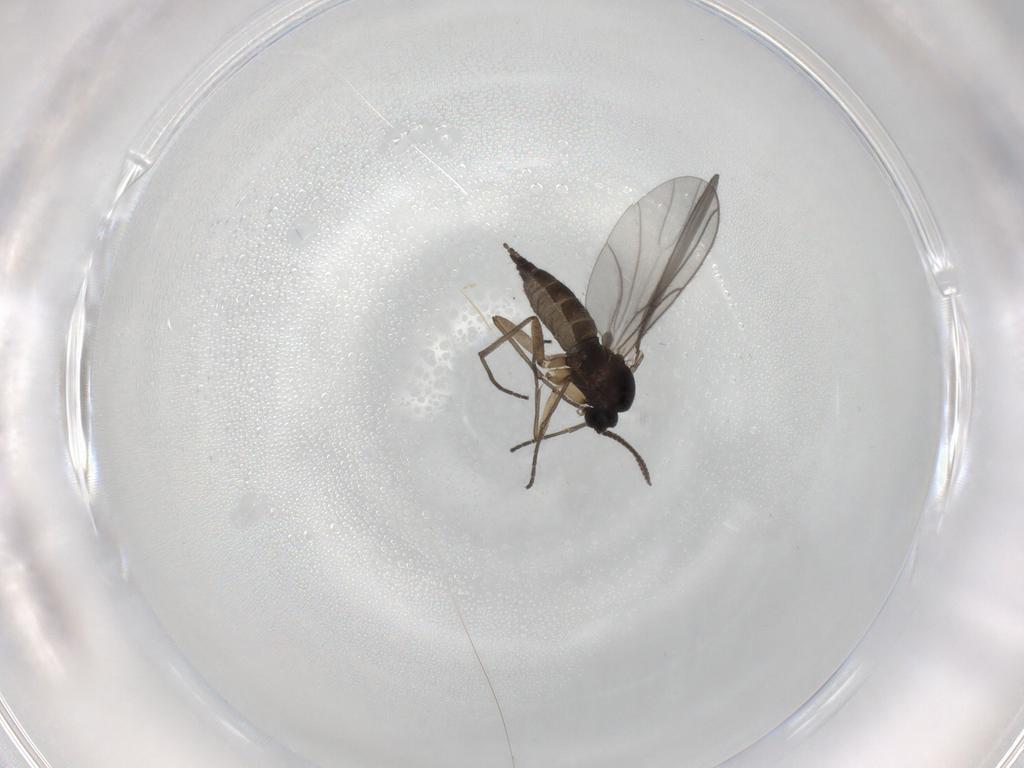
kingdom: Animalia
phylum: Arthropoda
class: Insecta
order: Diptera
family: Sciaridae
